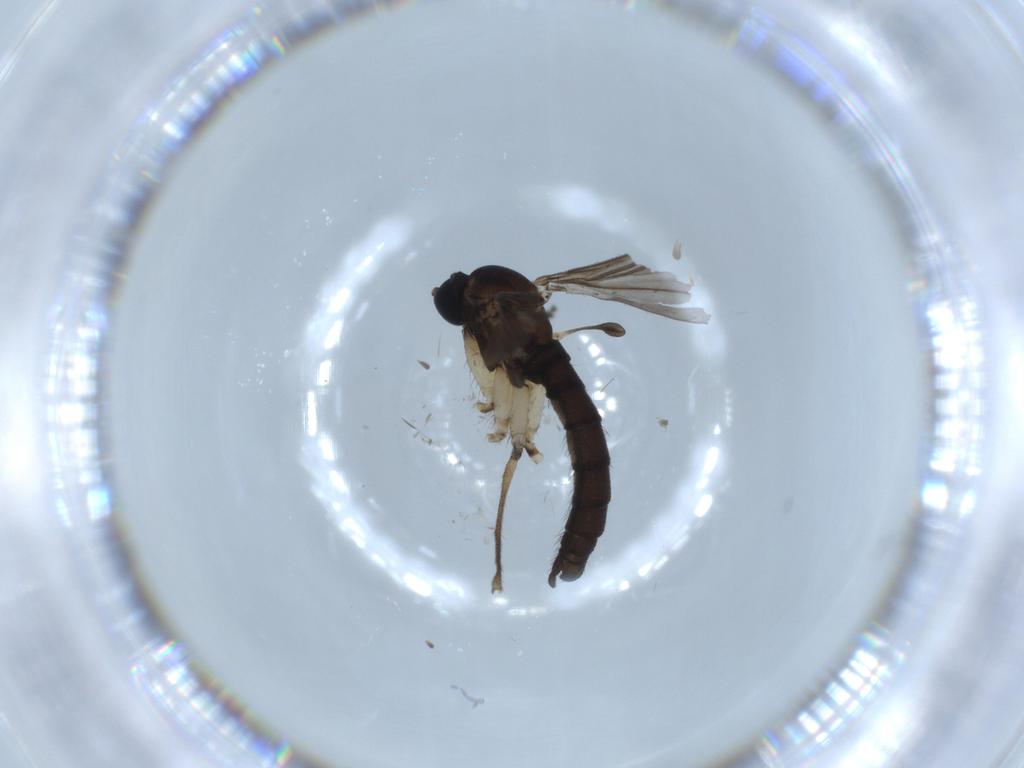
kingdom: Animalia
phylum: Arthropoda
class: Insecta
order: Diptera
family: Sciaridae
